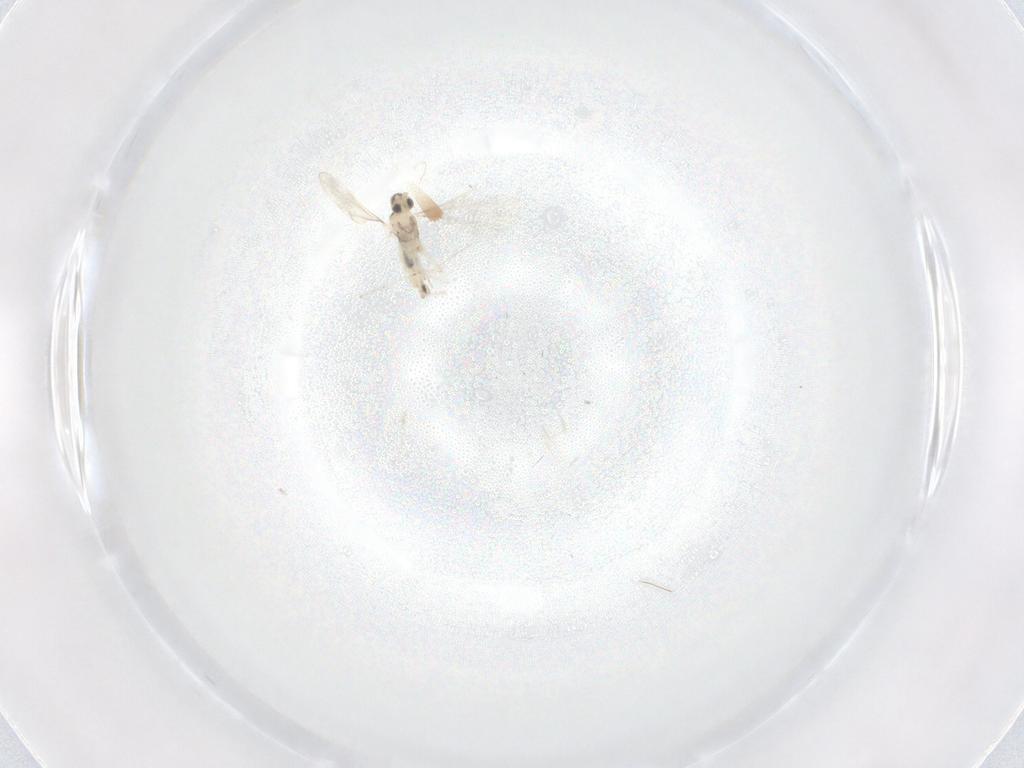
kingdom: Animalia
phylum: Arthropoda
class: Insecta
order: Diptera
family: Cecidomyiidae
